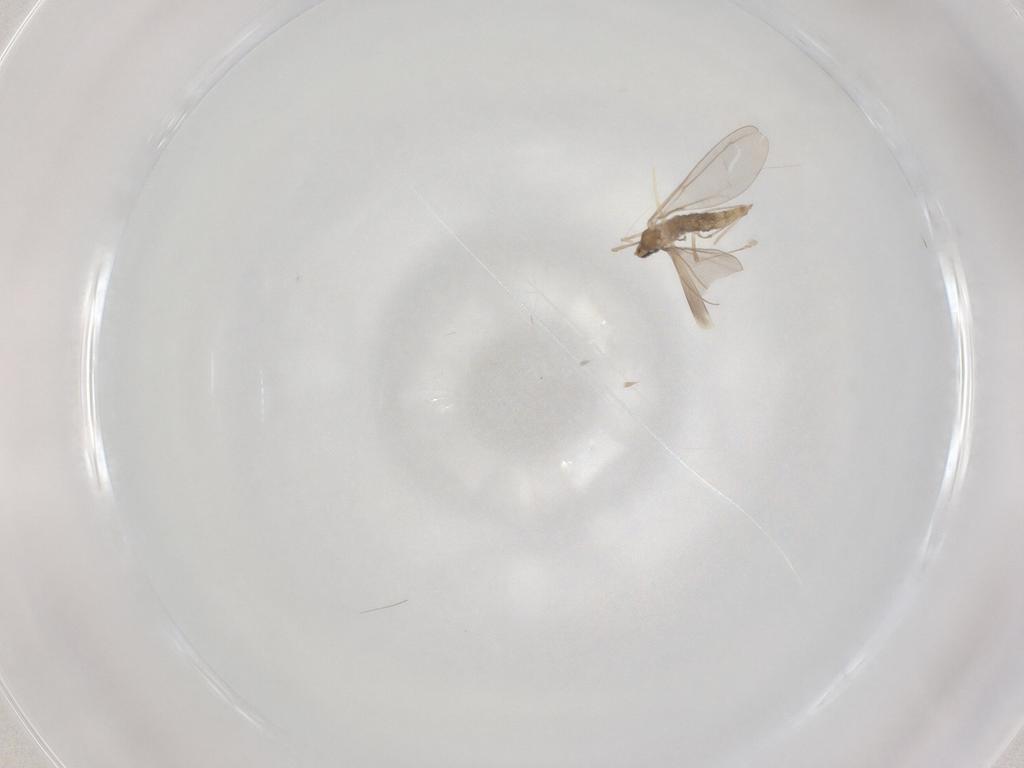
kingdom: Animalia
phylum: Arthropoda
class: Insecta
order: Diptera
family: Cecidomyiidae
